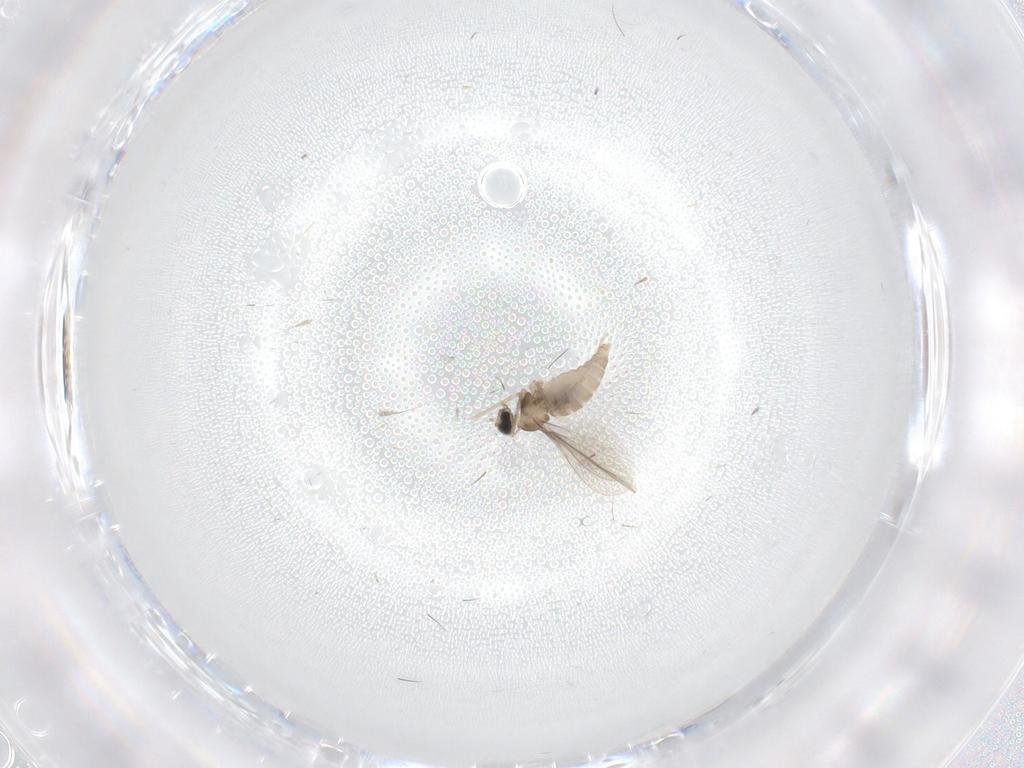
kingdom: Animalia
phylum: Arthropoda
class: Insecta
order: Diptera
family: Cecidomyiidae
